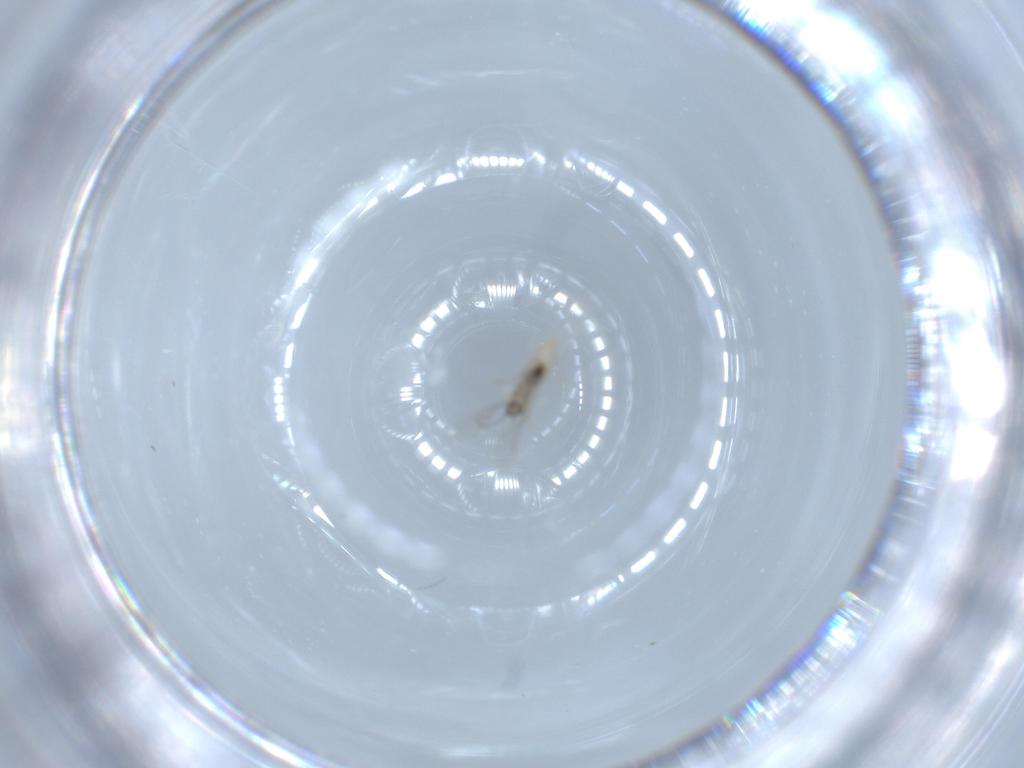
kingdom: Animalia
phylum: Arthropoda
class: Insecta
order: Diptera
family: Cecidomyiidae
